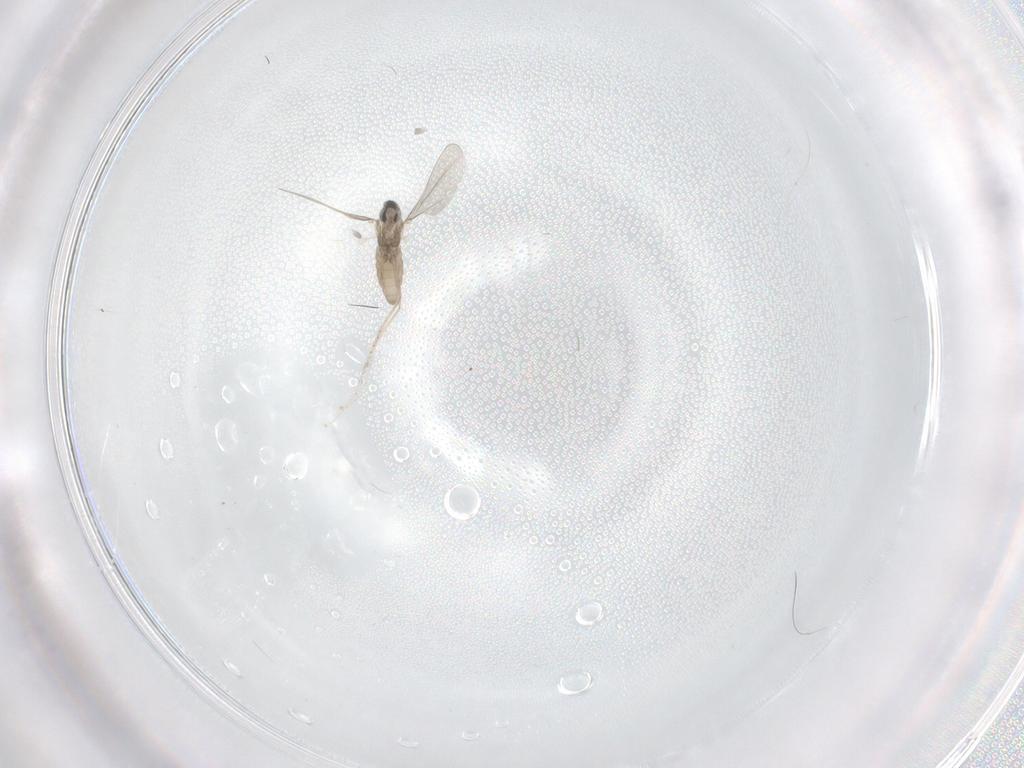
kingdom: Animalia
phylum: Arthropoda
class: Insecta
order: Diptera
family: Cecidomyiidae
